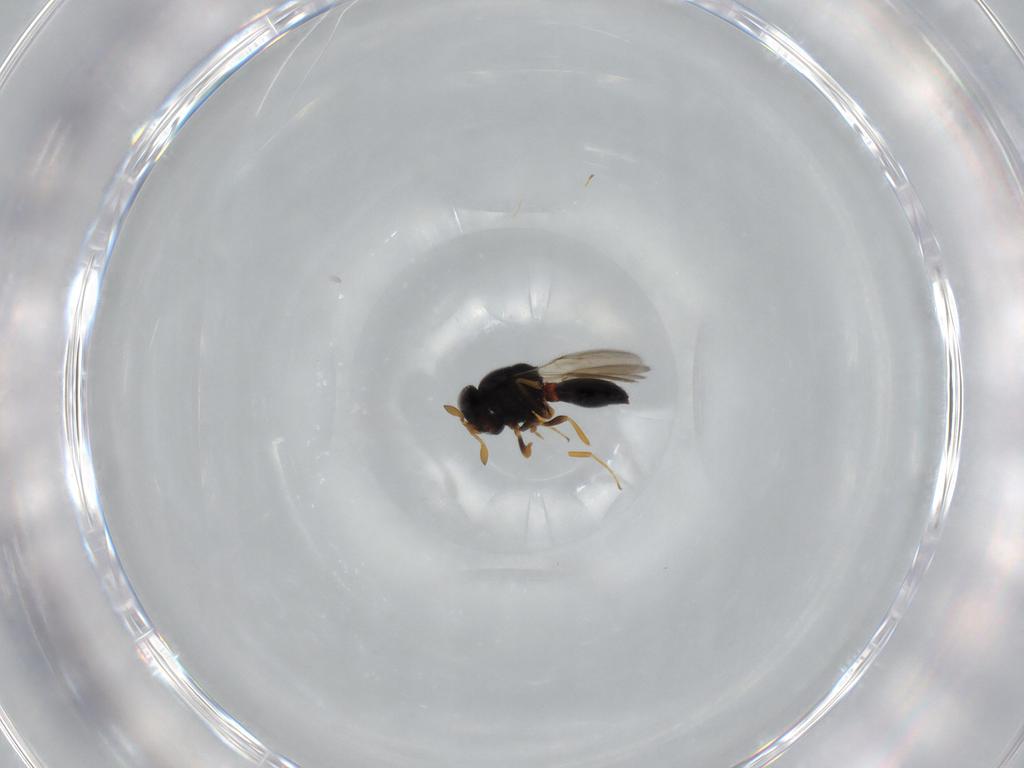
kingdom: Animalia
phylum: Arthropoda
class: Insecta
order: Hymenoptera
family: Scelionidae
